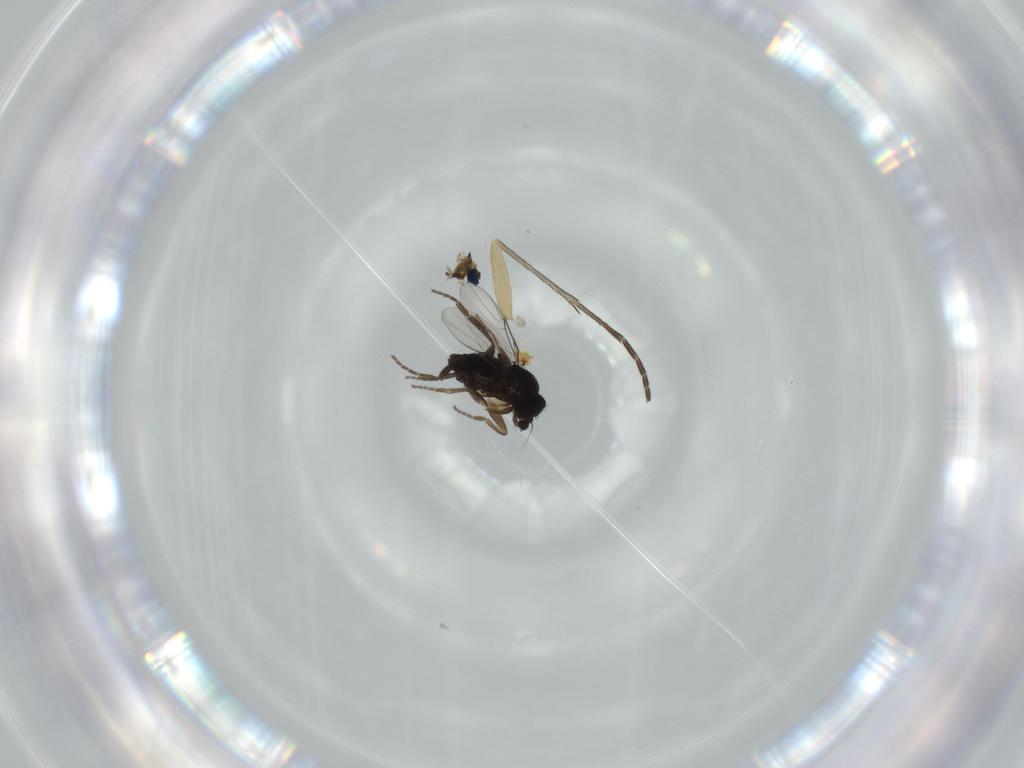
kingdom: Animalia
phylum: Arthropoda
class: Insecta
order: Diptera
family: Phoridae
